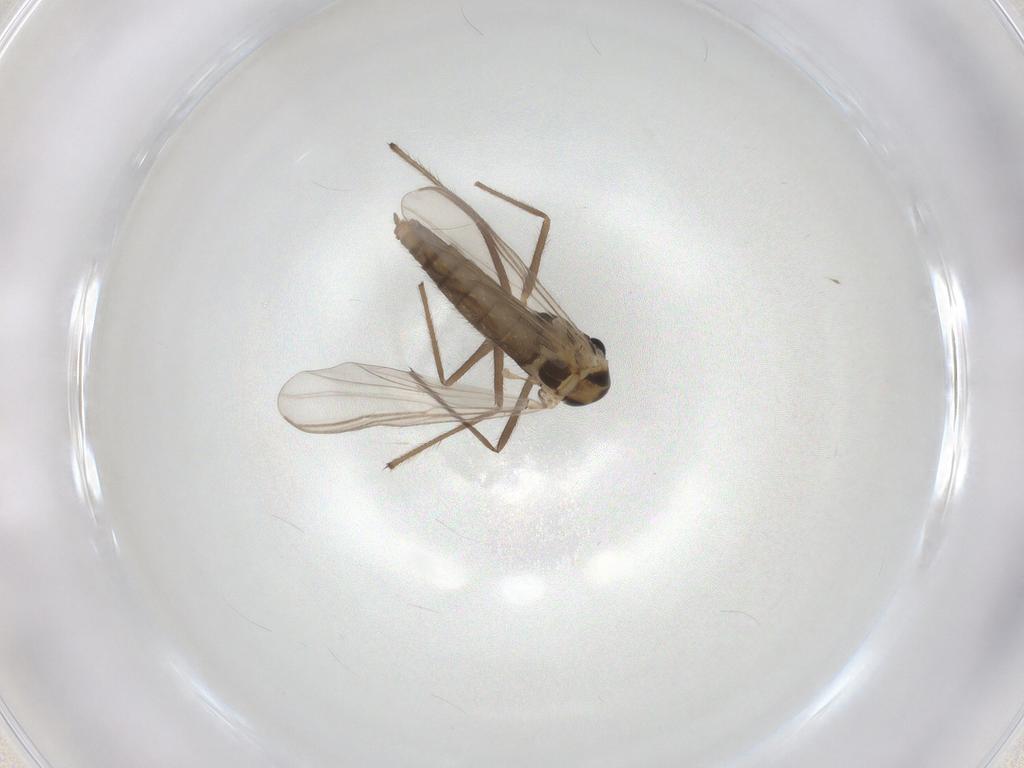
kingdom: Animalia
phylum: Arthropoda
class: Insecta
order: Diptera
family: Chironomidae
